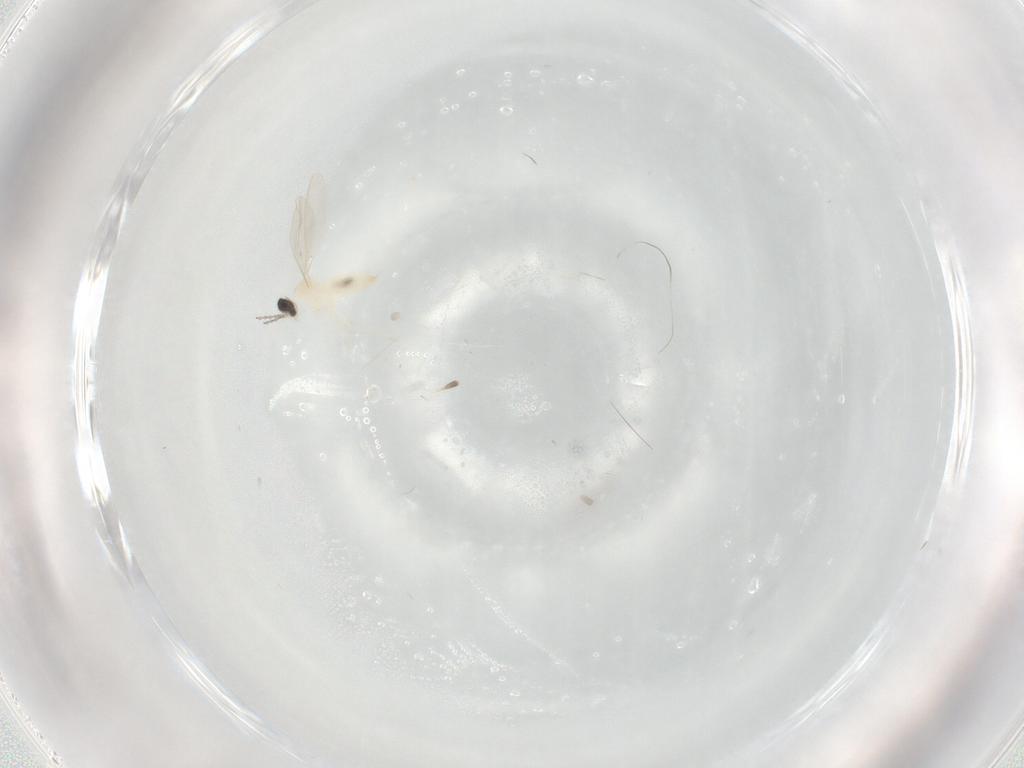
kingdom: Animalia
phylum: Arthropoda
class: Insecta
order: Diptera
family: Cecidomyiidae
